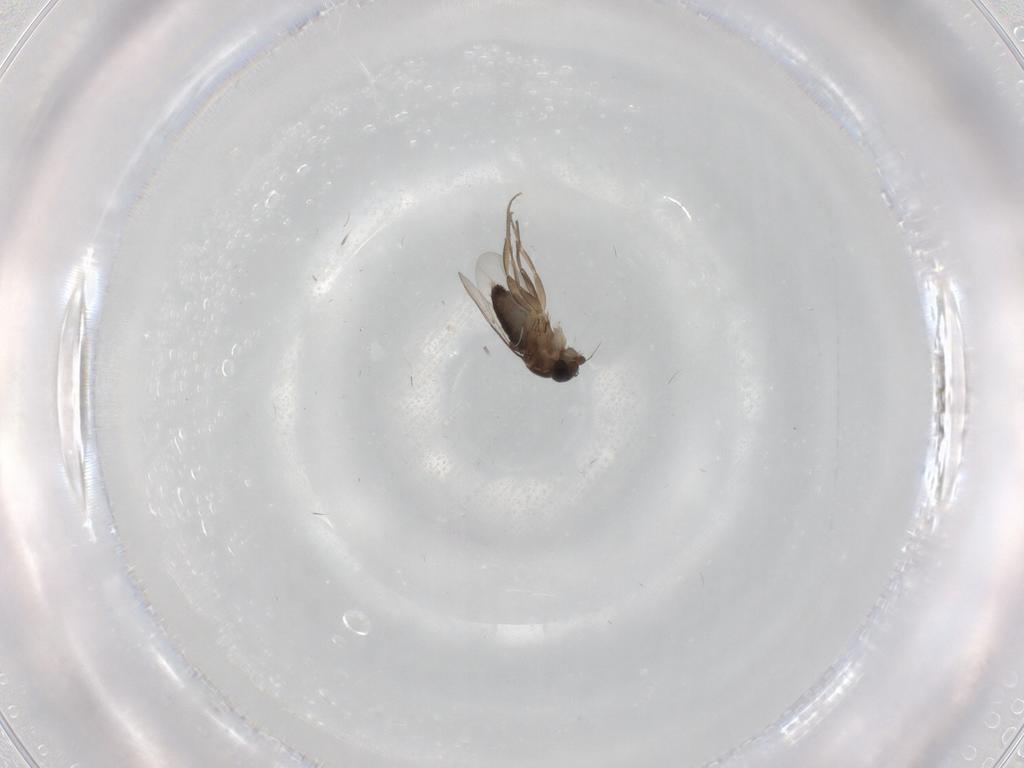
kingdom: Animalia
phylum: Arthropoda
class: Insecta
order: Diptera
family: Phoridae
